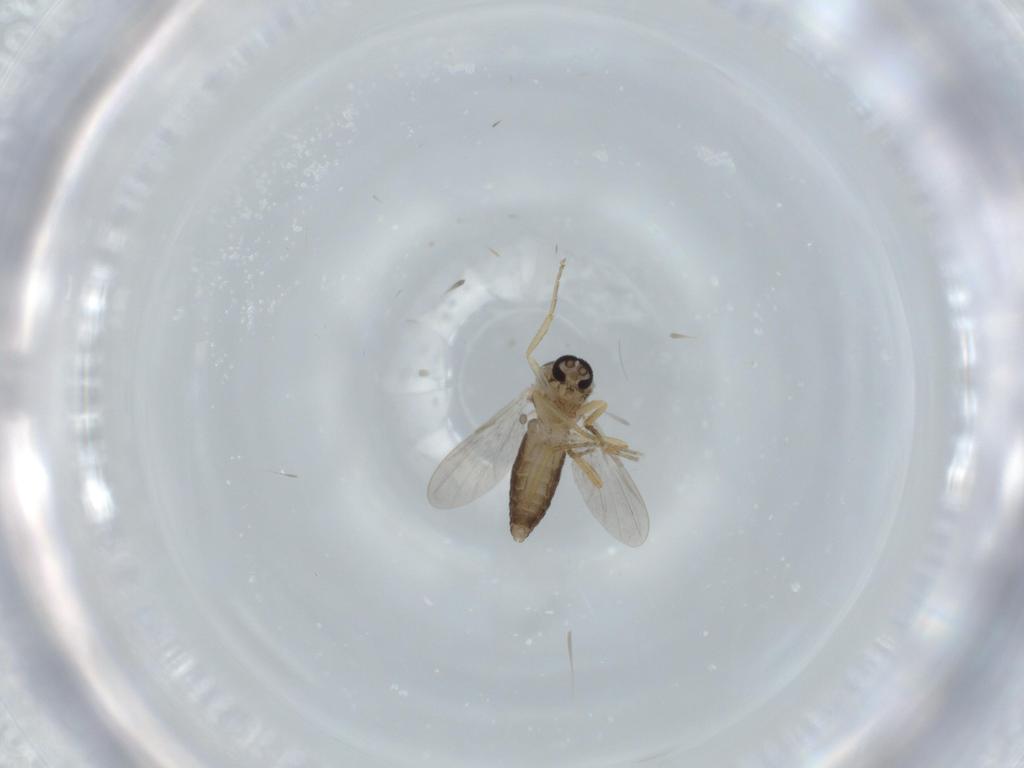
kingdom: Animalia
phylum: Arthropoda
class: Insecta
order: Diptera
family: Ceratopogonidae
